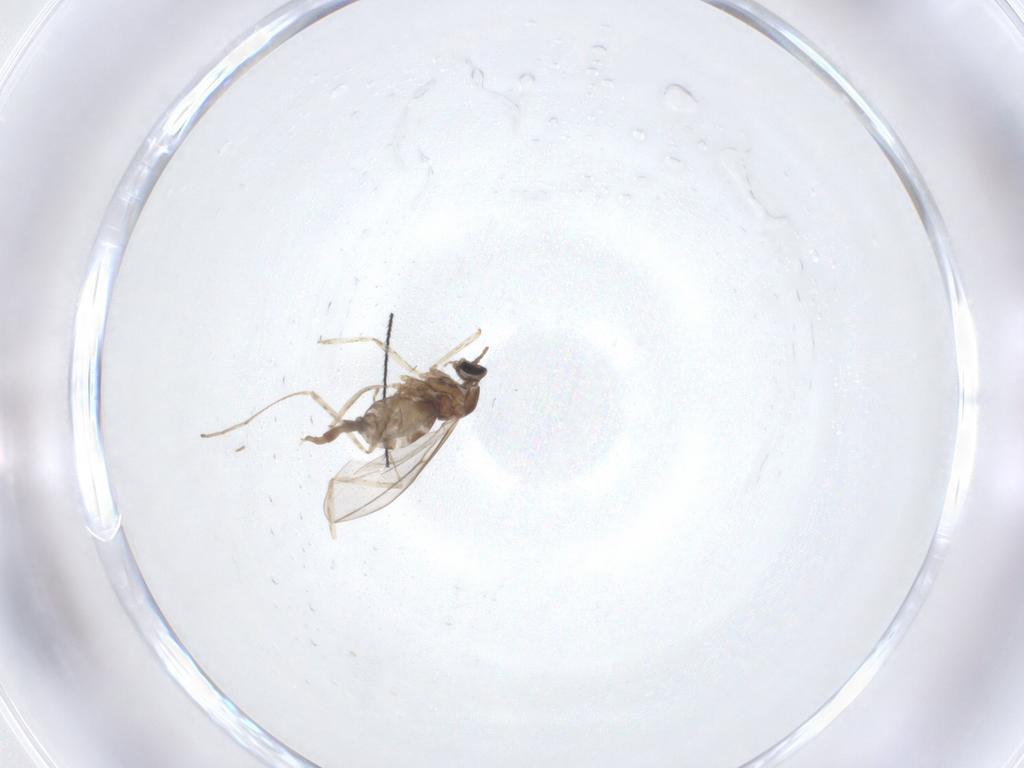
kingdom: Animalia
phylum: Arthropoda
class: Insecta
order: Diptera
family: Cecidomyiidae
